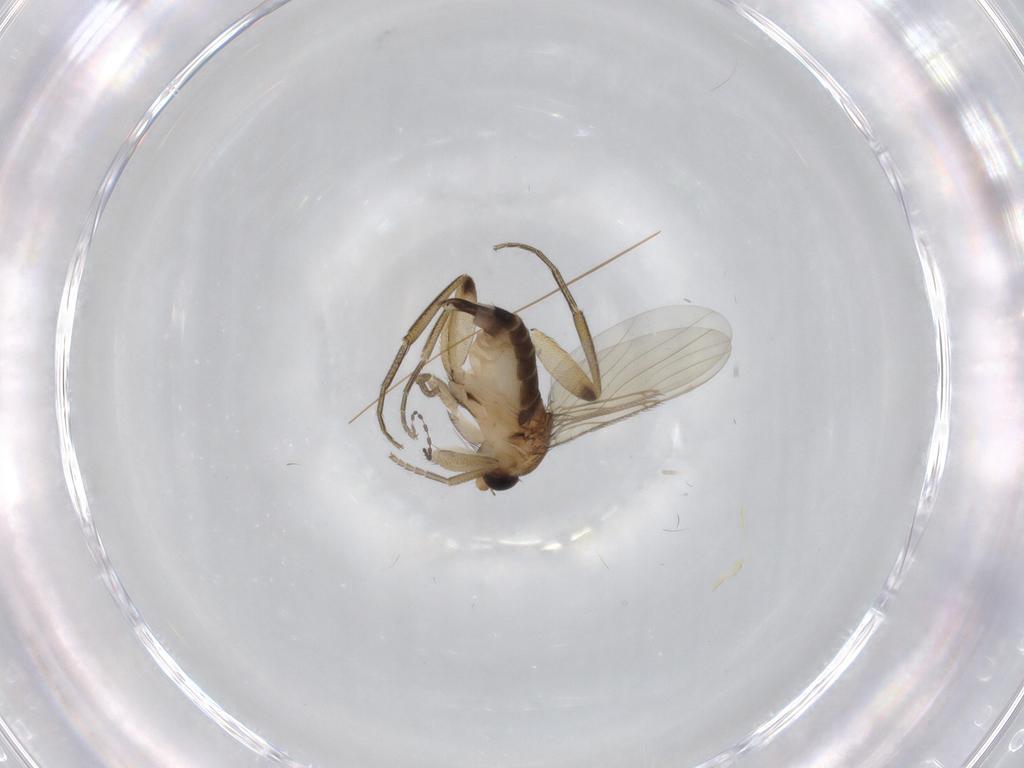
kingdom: Animalia
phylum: Arthropoda
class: Insecta
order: Diptera
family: Phoridae
